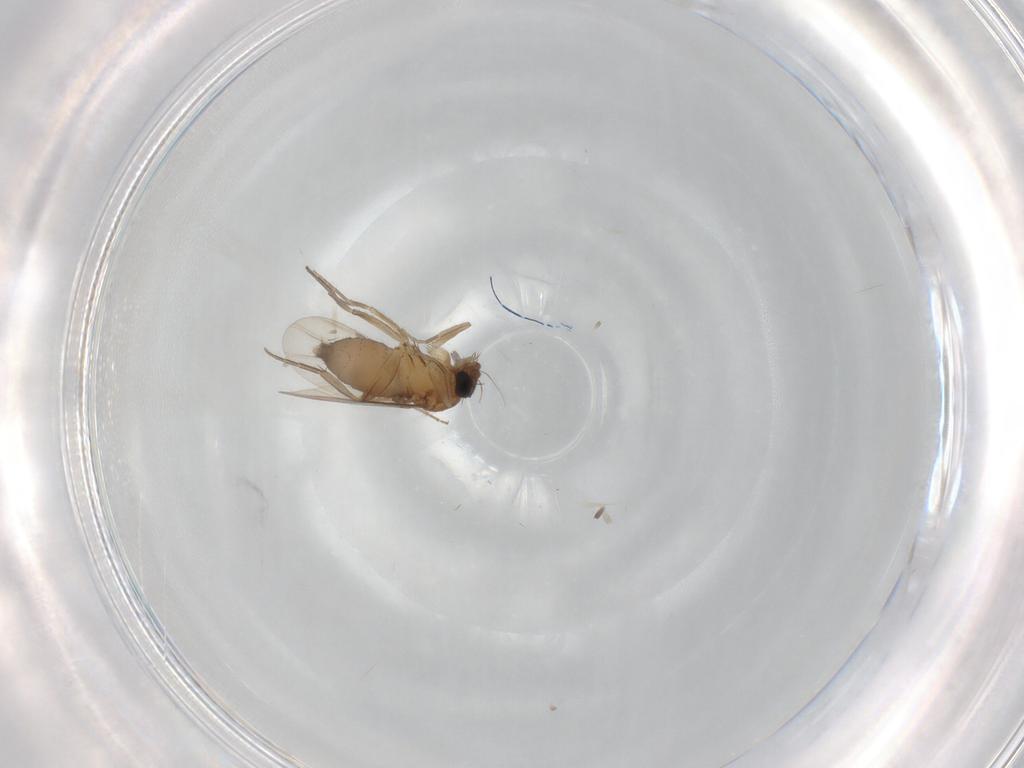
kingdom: Animalia
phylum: Arthropoda
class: Insecta
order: Diptera
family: Phoridae
